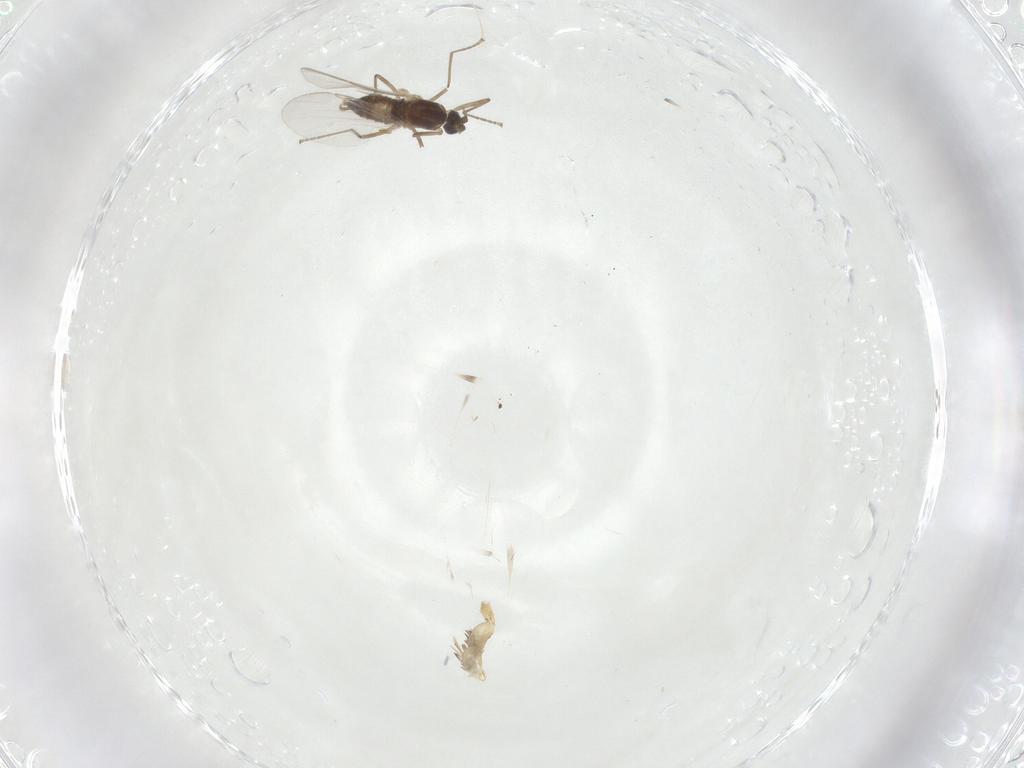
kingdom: Animalia
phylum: Arthropoda
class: Insecta
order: Diptera
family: Cecidomyiidae
